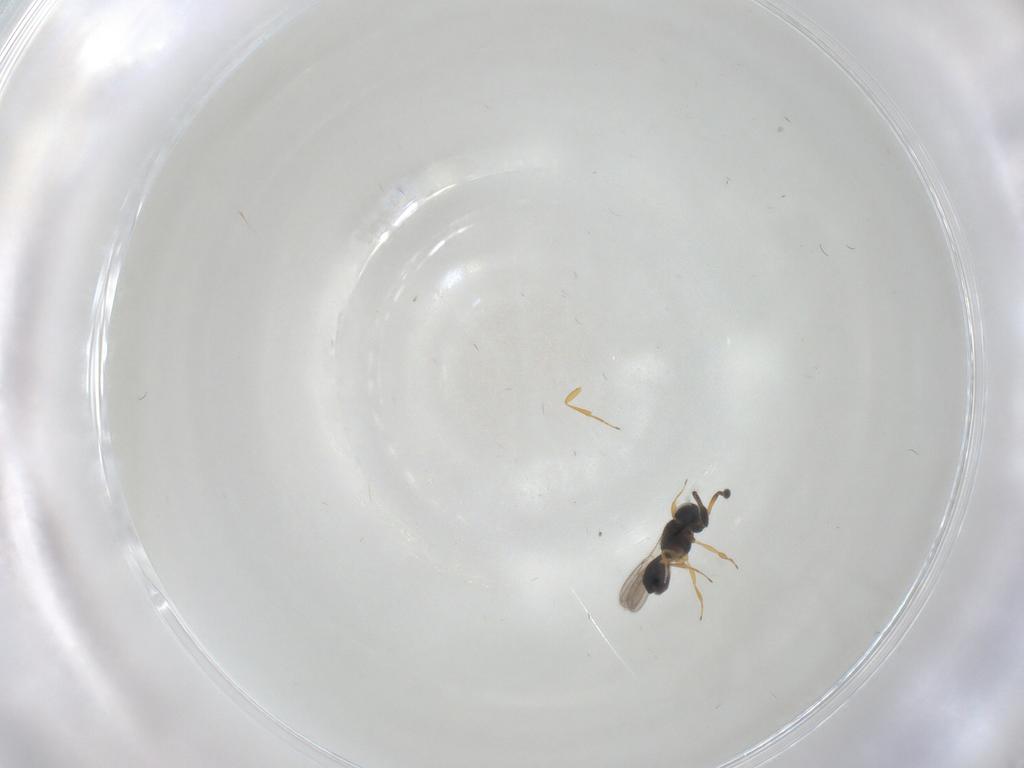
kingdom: Animalia
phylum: Arthropoda
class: Insecta
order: Hymenoptera
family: Scelionidae
